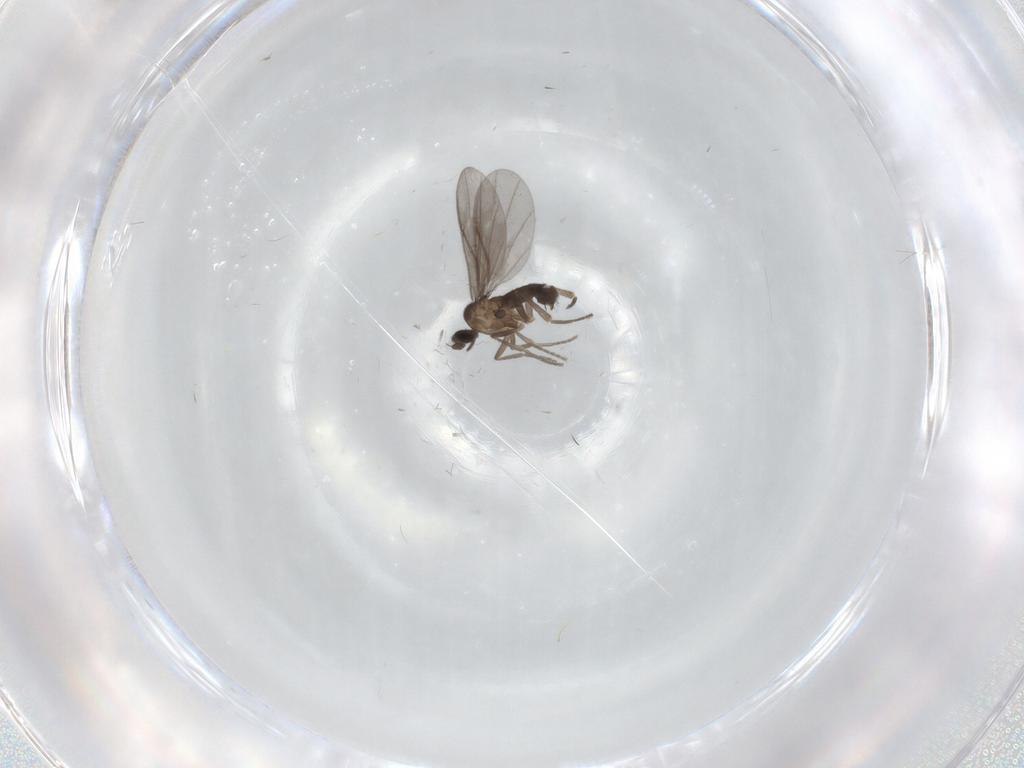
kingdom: Animalia
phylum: Arthropoda
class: Insecta
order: Diptera
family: Phoridae
